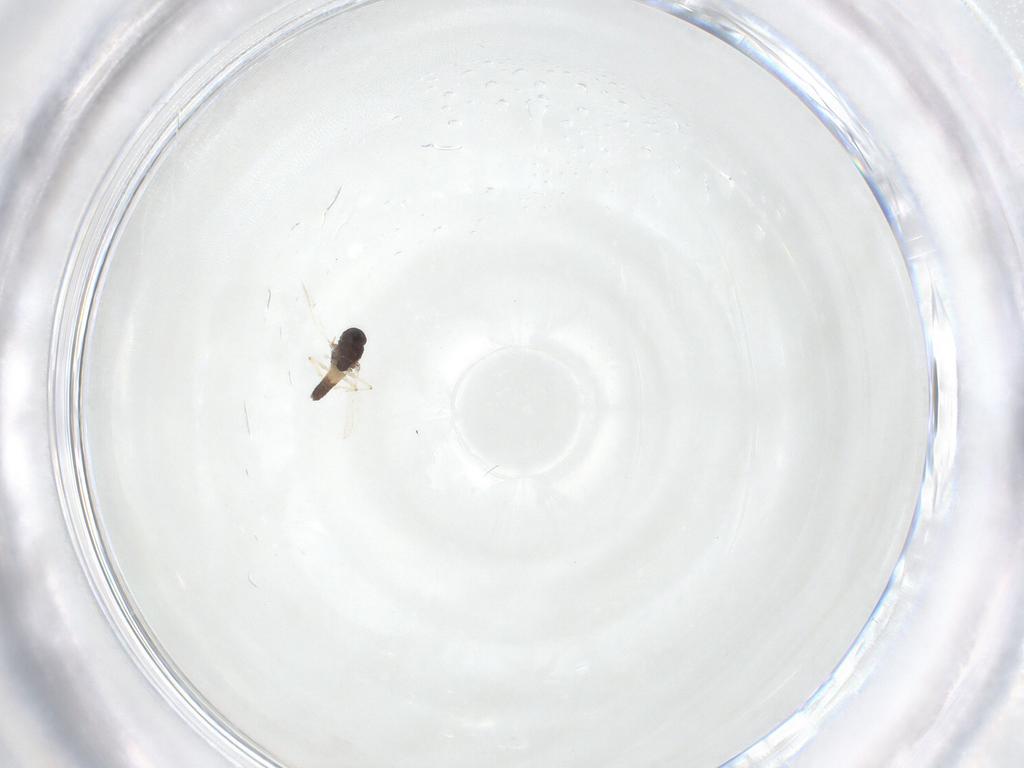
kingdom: Animalia
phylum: Arthropoda
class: Insecta
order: Diptera
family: Chironomidae
